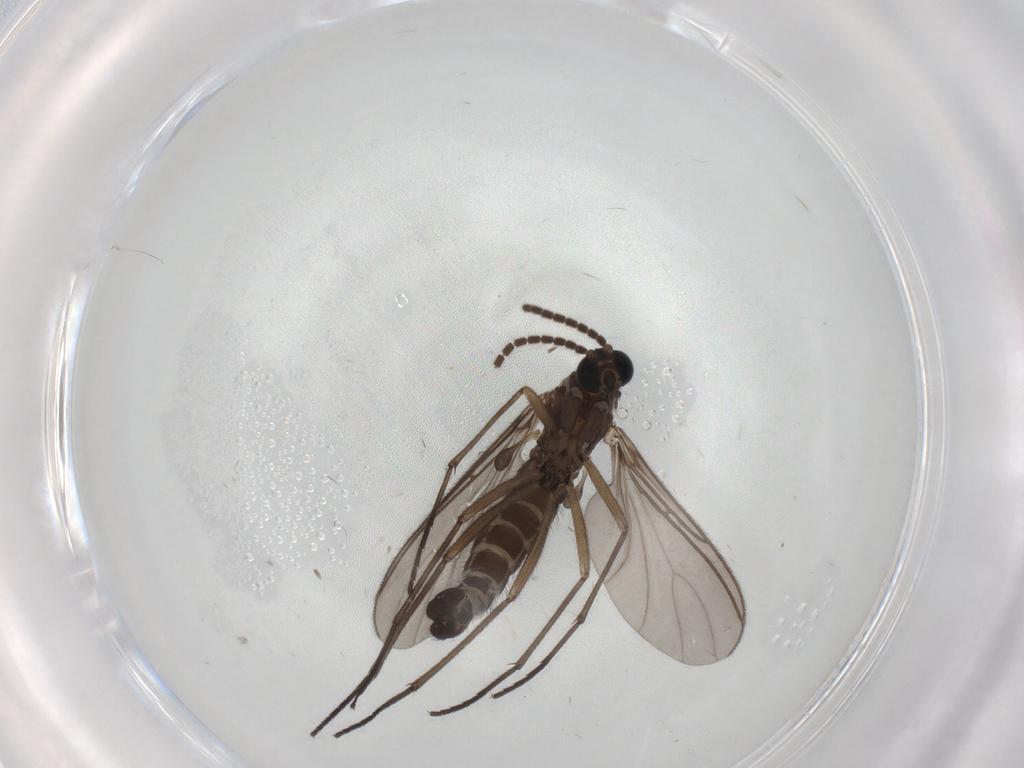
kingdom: Animalia
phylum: Arthropoda
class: Insecta
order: Diptera
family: Sciaridae
